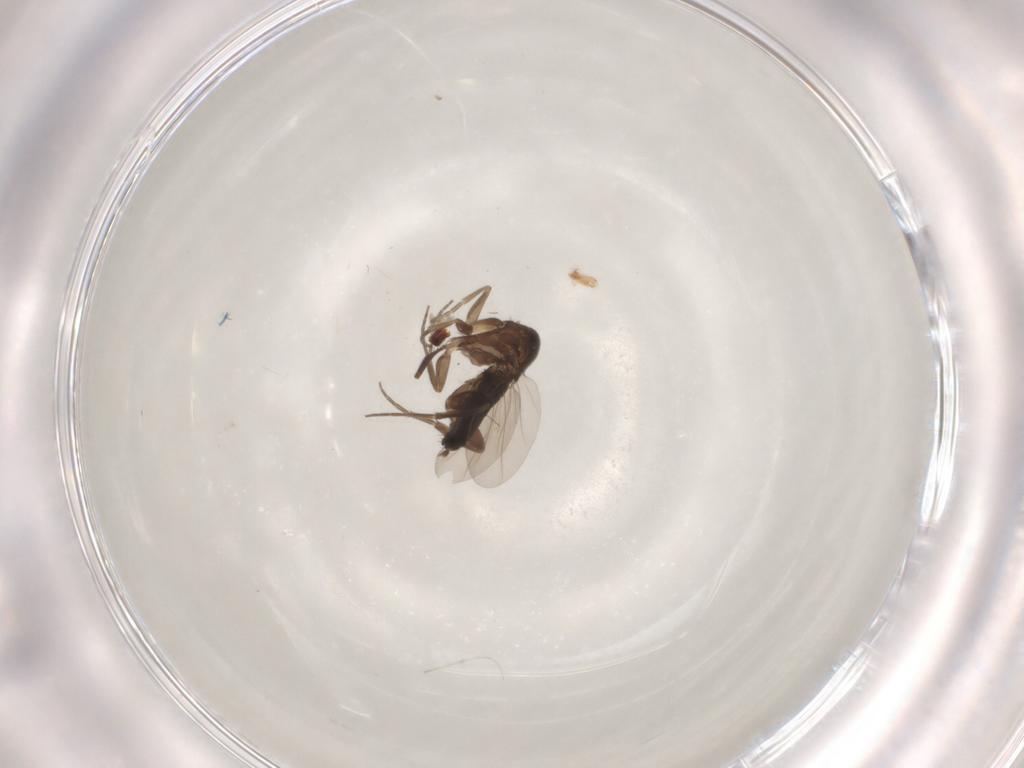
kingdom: Animalia
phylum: Arthropoda
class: Insecta
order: Diptera
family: Phoridae
